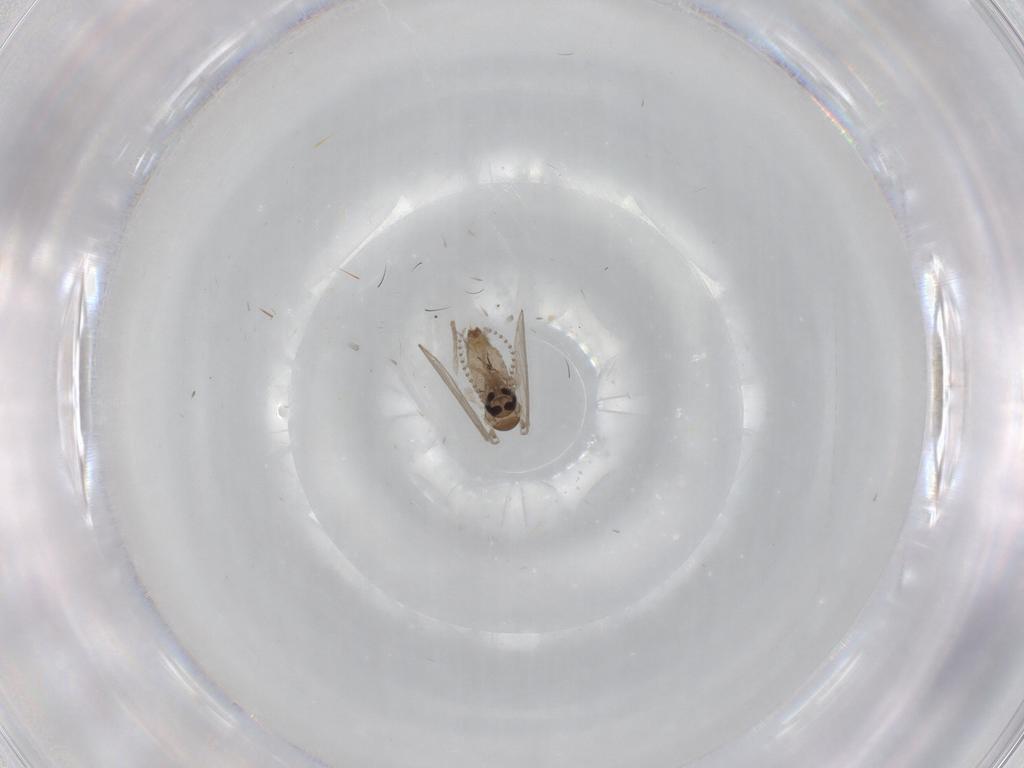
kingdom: Animalia
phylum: Arthropoda
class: Insecta
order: Diptera
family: Psychodidae
